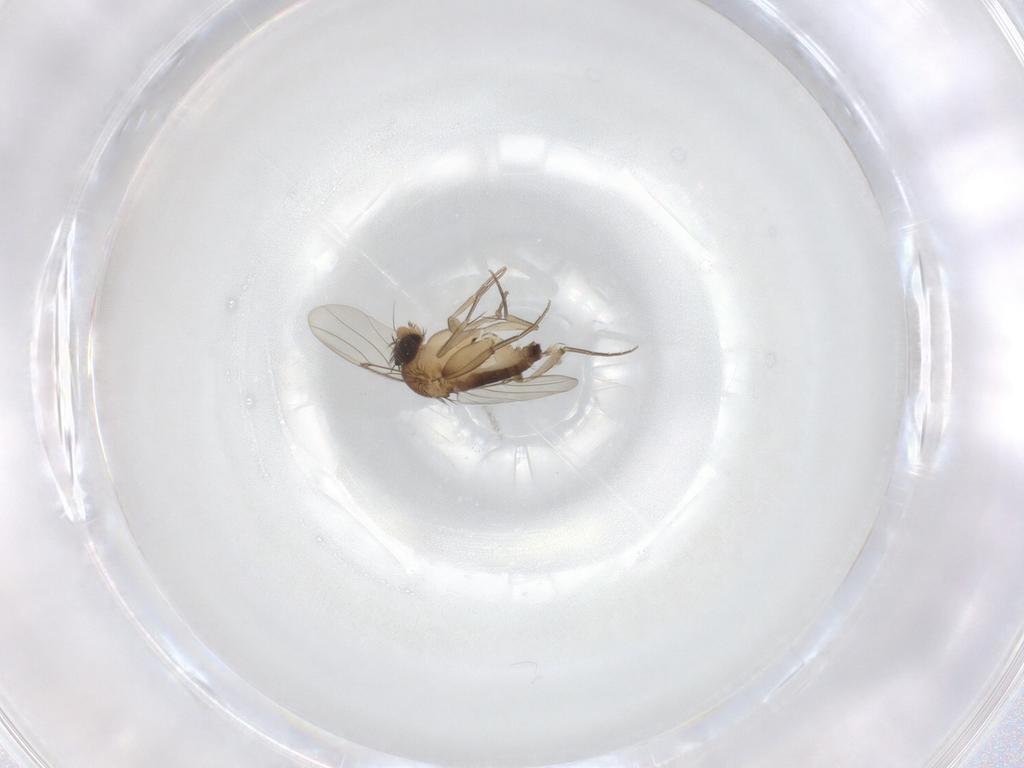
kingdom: Animalia
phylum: Arthropoda
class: Insecta
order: Diptera
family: Phoridae
